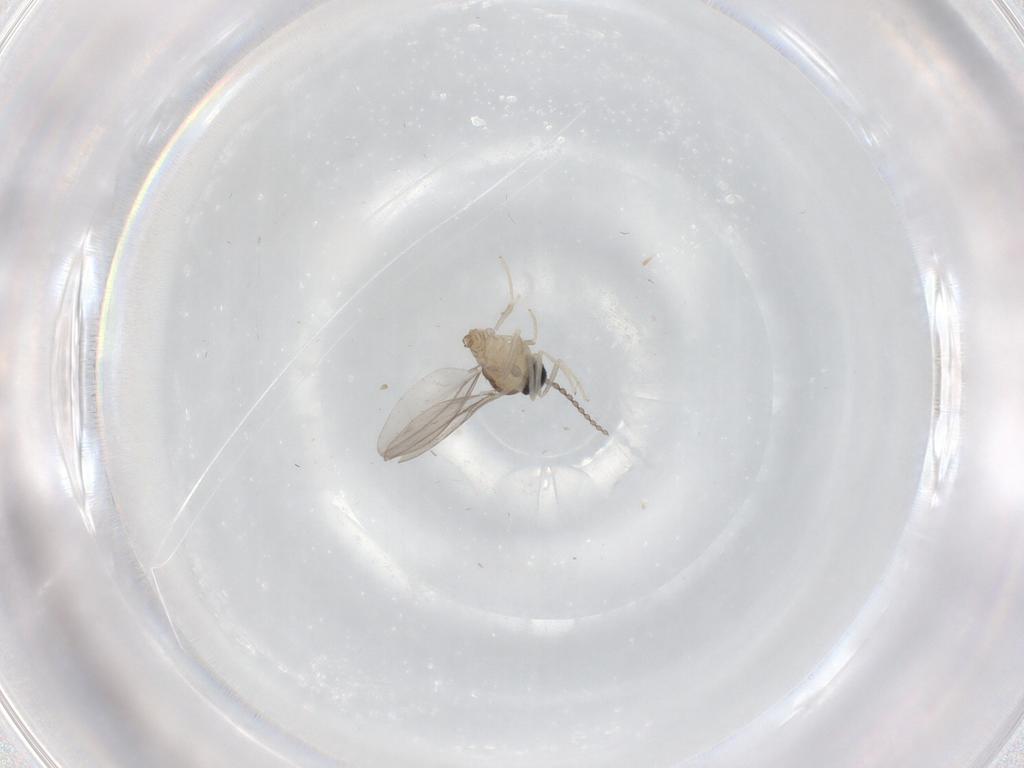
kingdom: Animalia
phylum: Arthropoda
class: Insecta
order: Diptera
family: Cecidomyiidae
